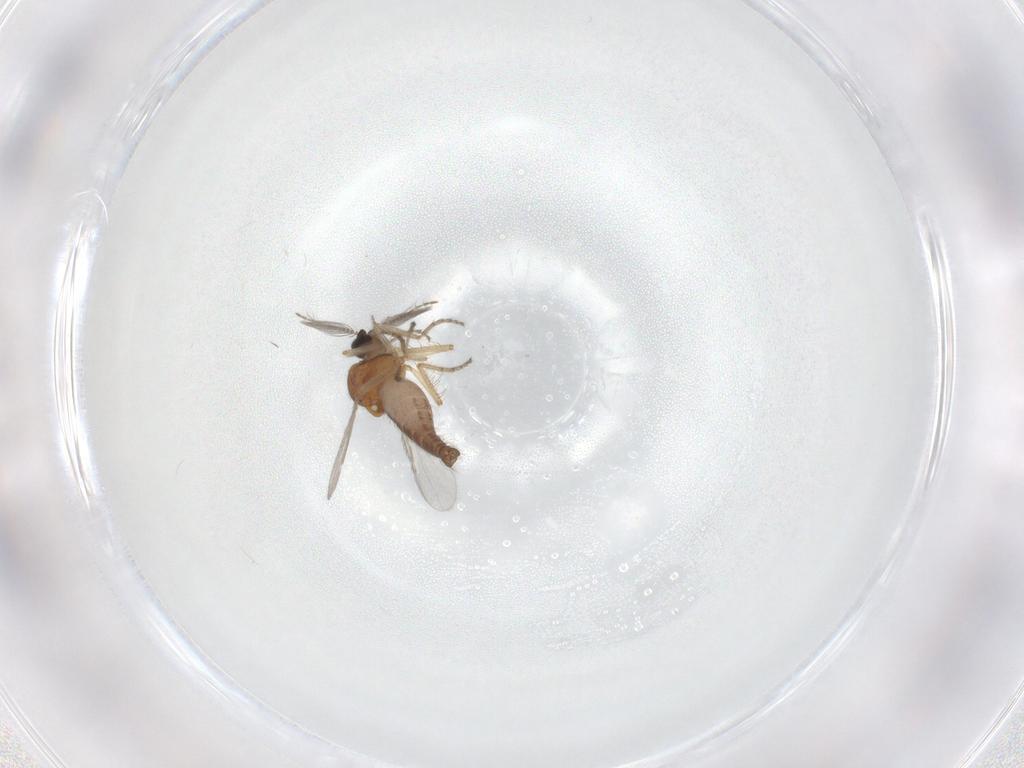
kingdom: Animalia
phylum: Arthropoda
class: Insecta
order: Diptera
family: Ceratopogonidae
